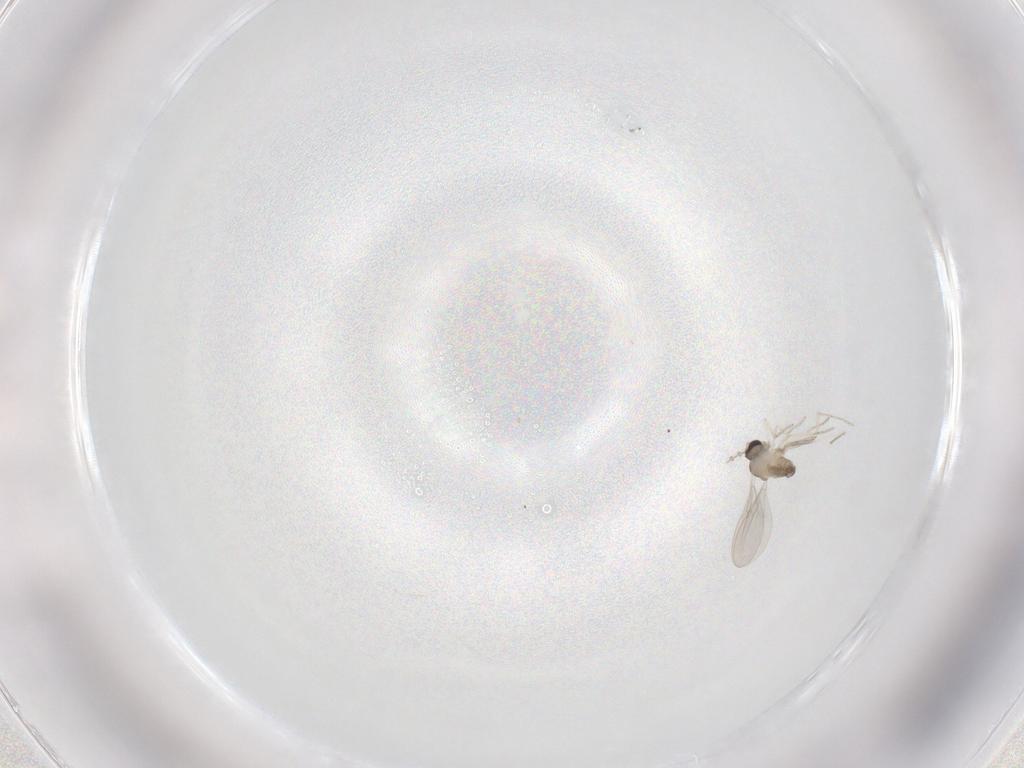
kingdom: Animalia
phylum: Arthropoda
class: Insecta
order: Diptera
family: Cecidomyiidae
